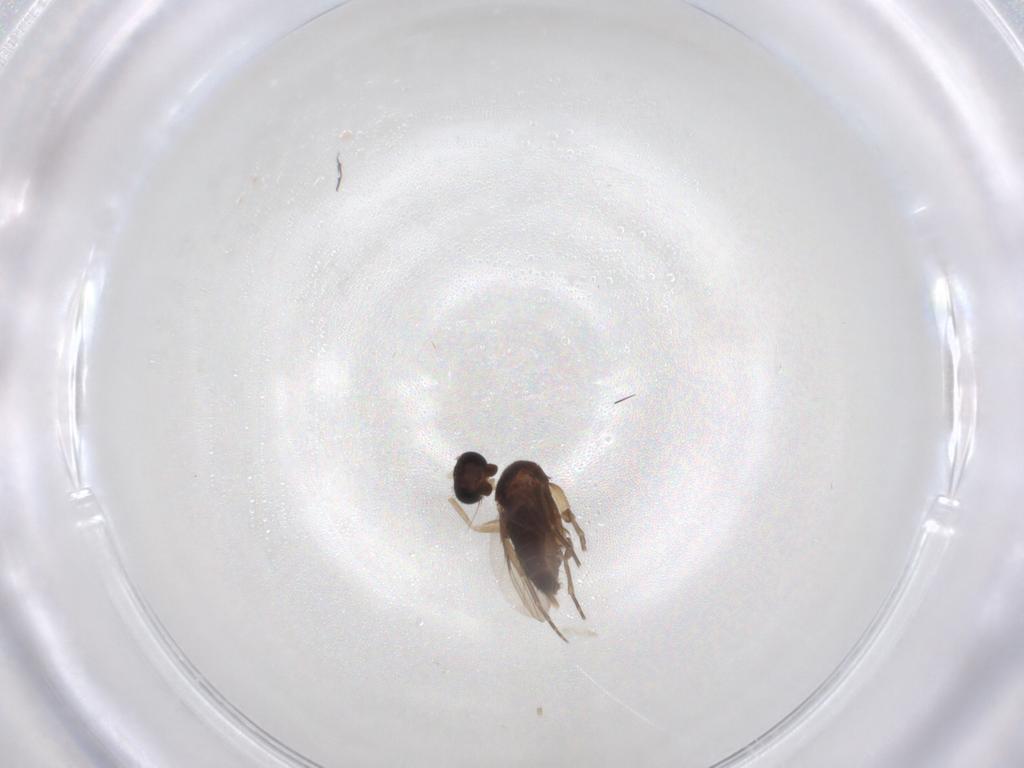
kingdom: Animalia
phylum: Arthropoda
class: Insecta
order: Diptera
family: Phoridae
